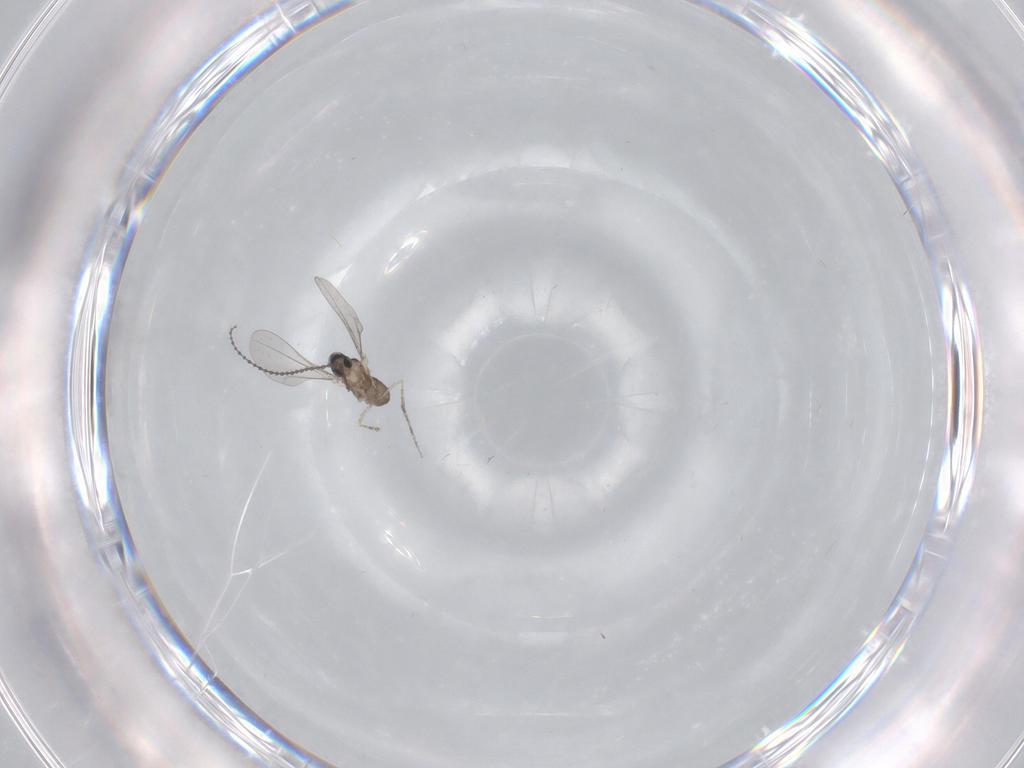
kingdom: Animalia
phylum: Arthropoda
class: Insecta
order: Diptera
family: Cecidomyiidae
